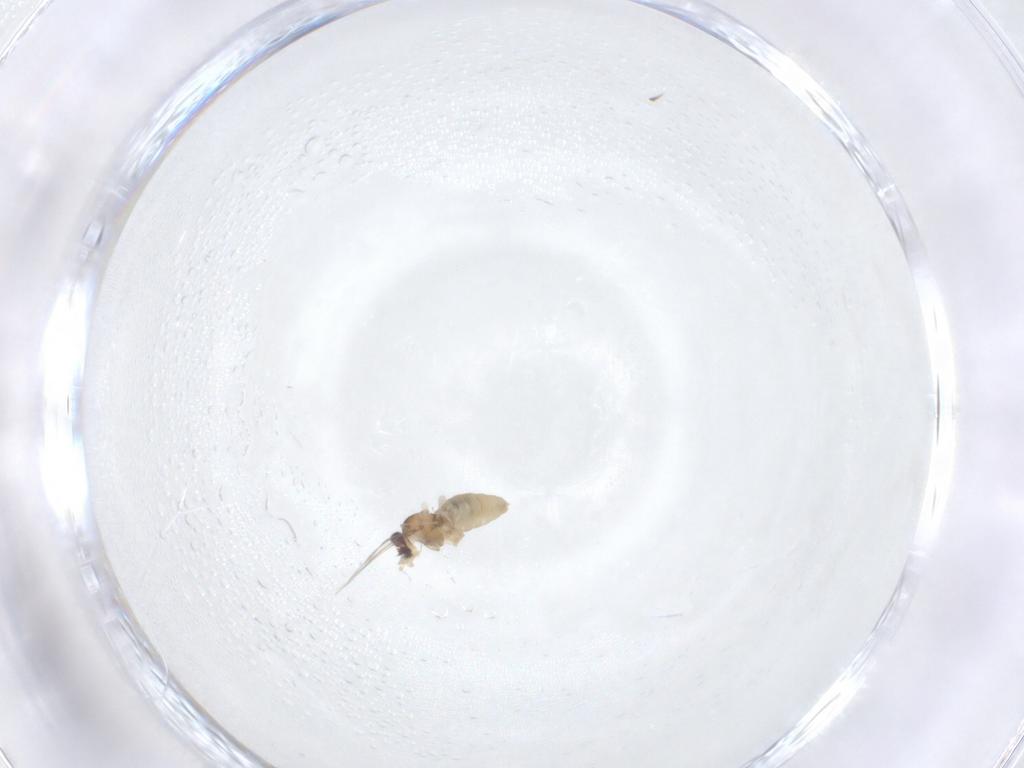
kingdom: Animalia
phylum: Arthropoda
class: Insecta
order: Diptera
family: Cecidomyiidae
